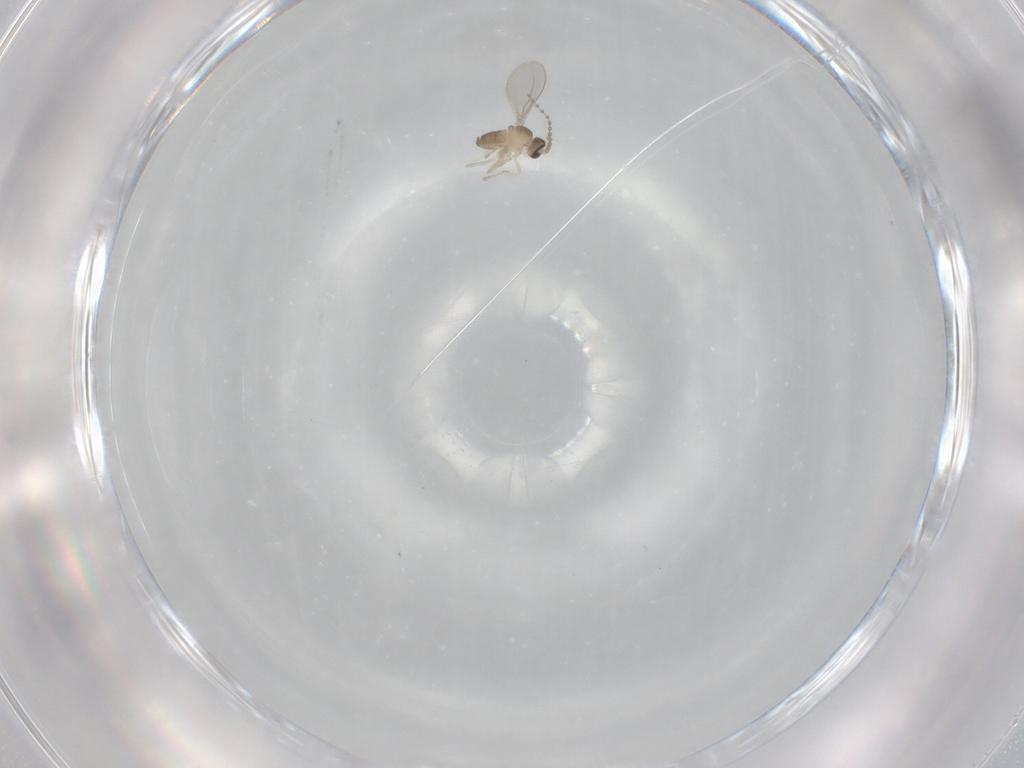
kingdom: Animalia
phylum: Arthropoda
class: Insecta
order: Diptera
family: Cecidomyiidae
